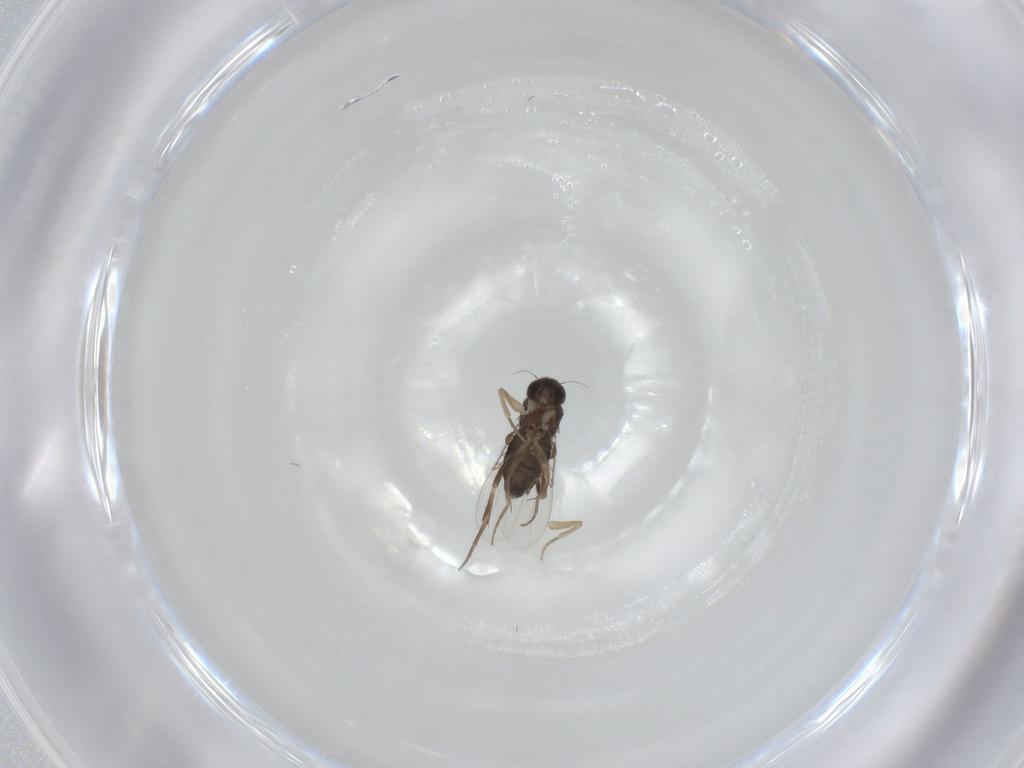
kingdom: Animalia
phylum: Arthropoda
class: Insecta
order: Diptera
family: Phoridae
